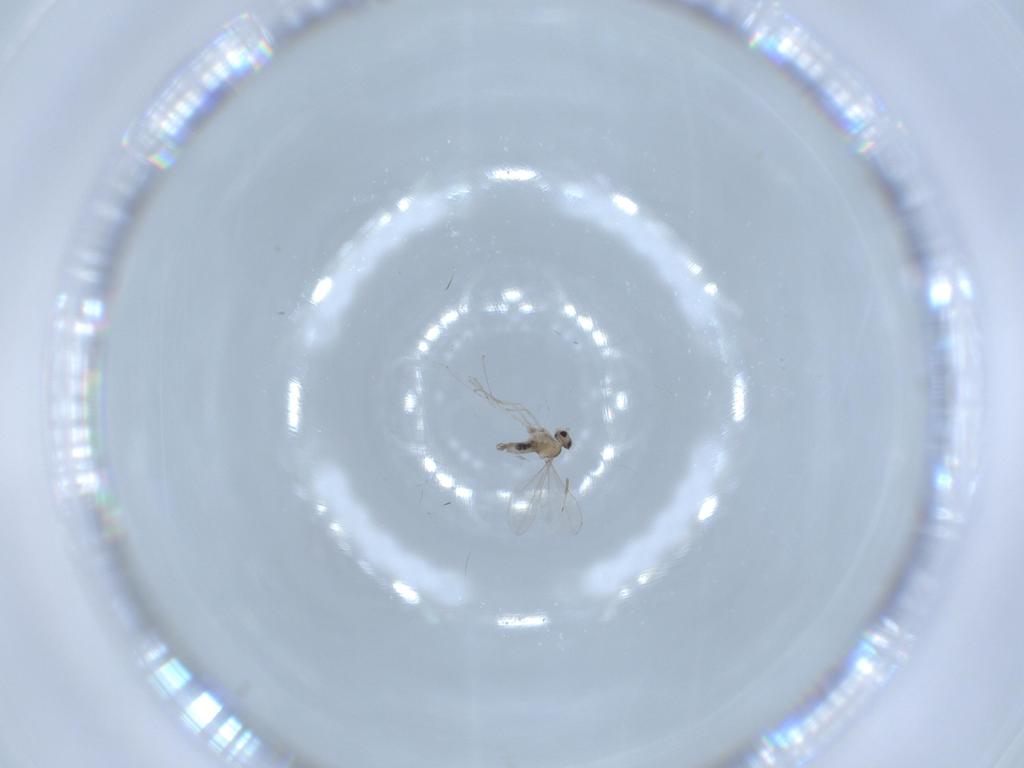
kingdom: Animalia
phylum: Arthropoda
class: Insecta
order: Diptera
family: Cecidomyiidae
